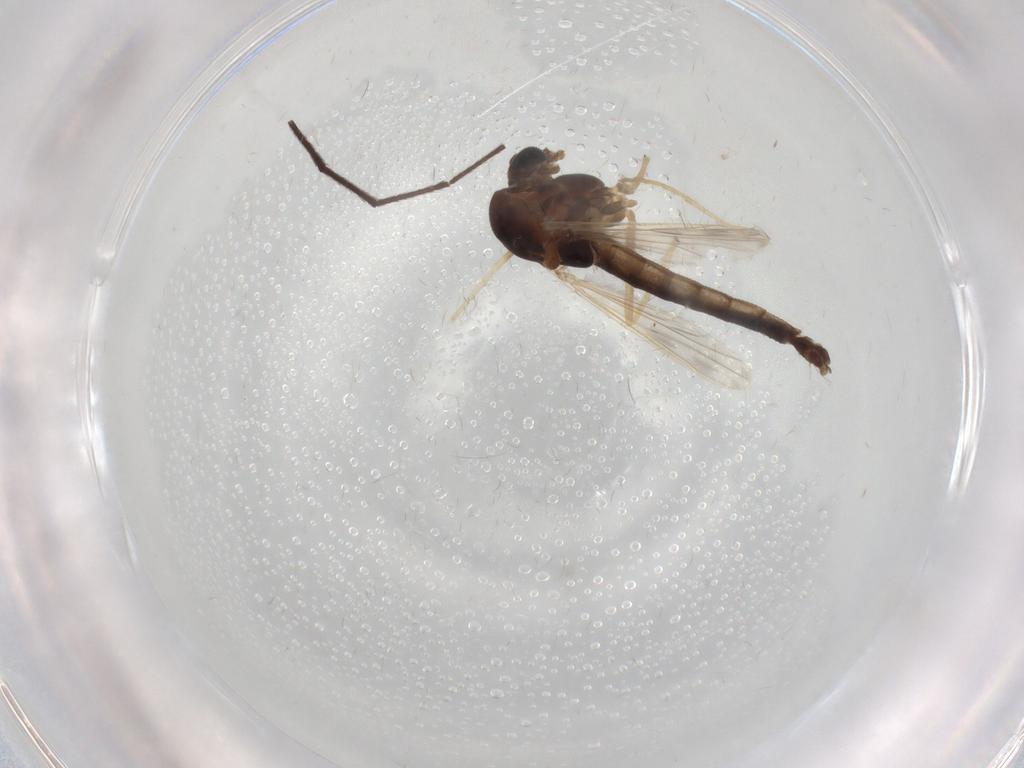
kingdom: Animalia
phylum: Arthropoda
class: Insecta
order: Diptera
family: Chironomidae
